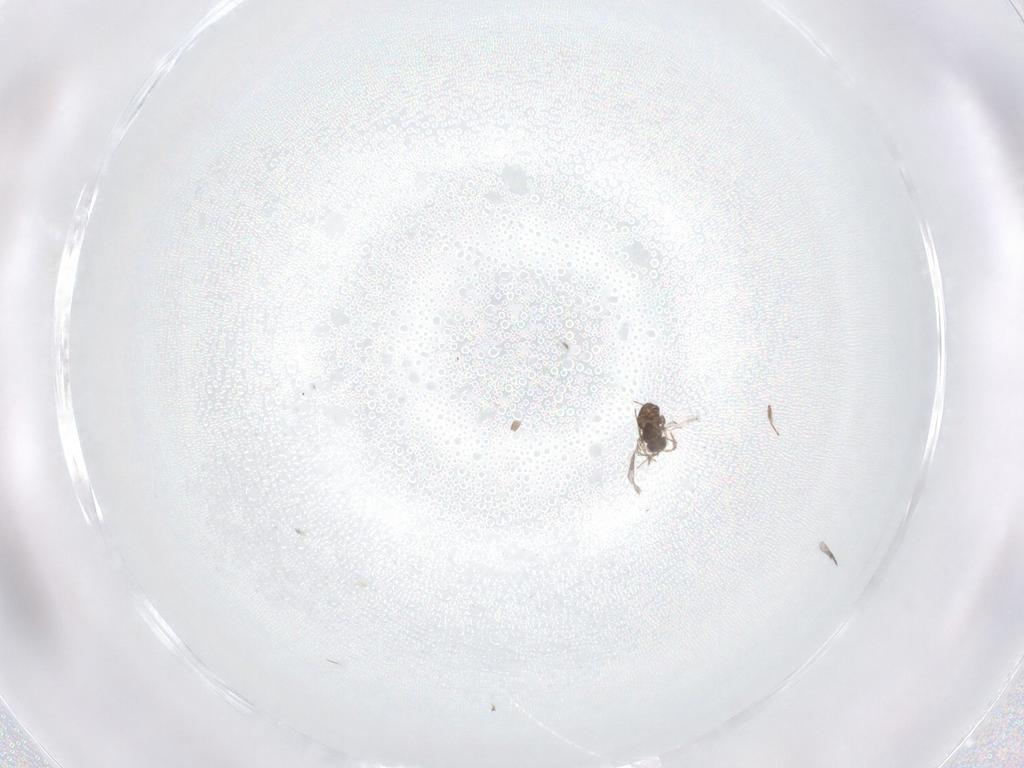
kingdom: Animalia
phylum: Arthropoda
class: Insecta
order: Hymenoptera
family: Trichogrammatidae
